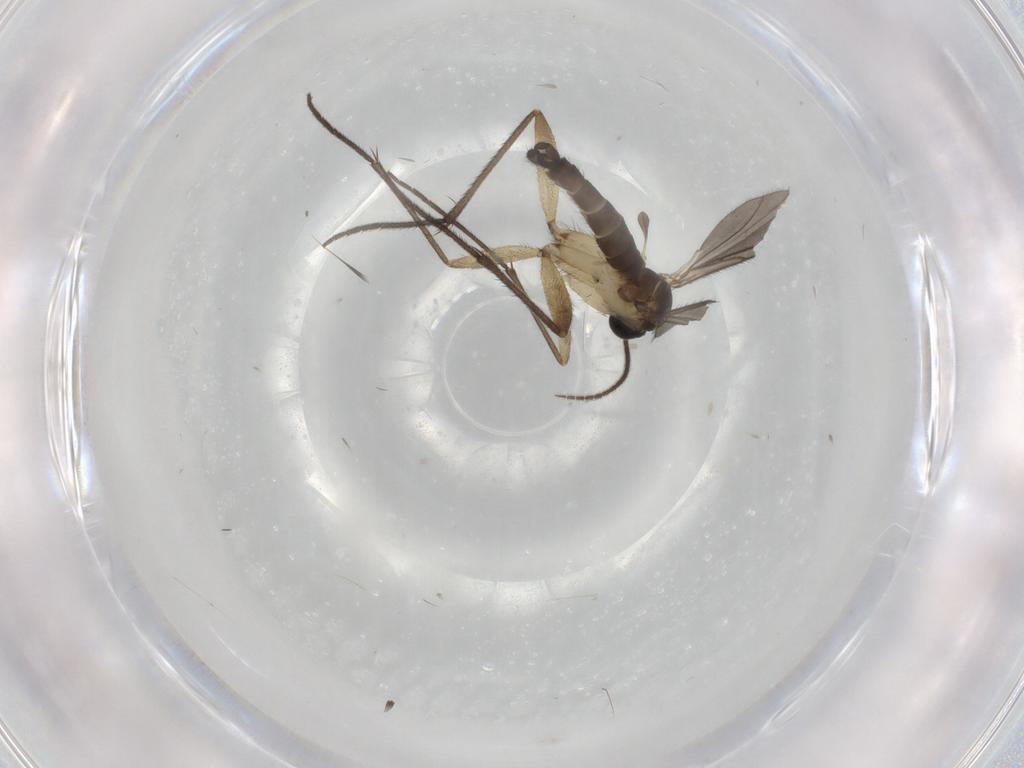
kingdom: Animalia
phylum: Arthropoda
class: Insecta
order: Diptera
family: Sciaridae
